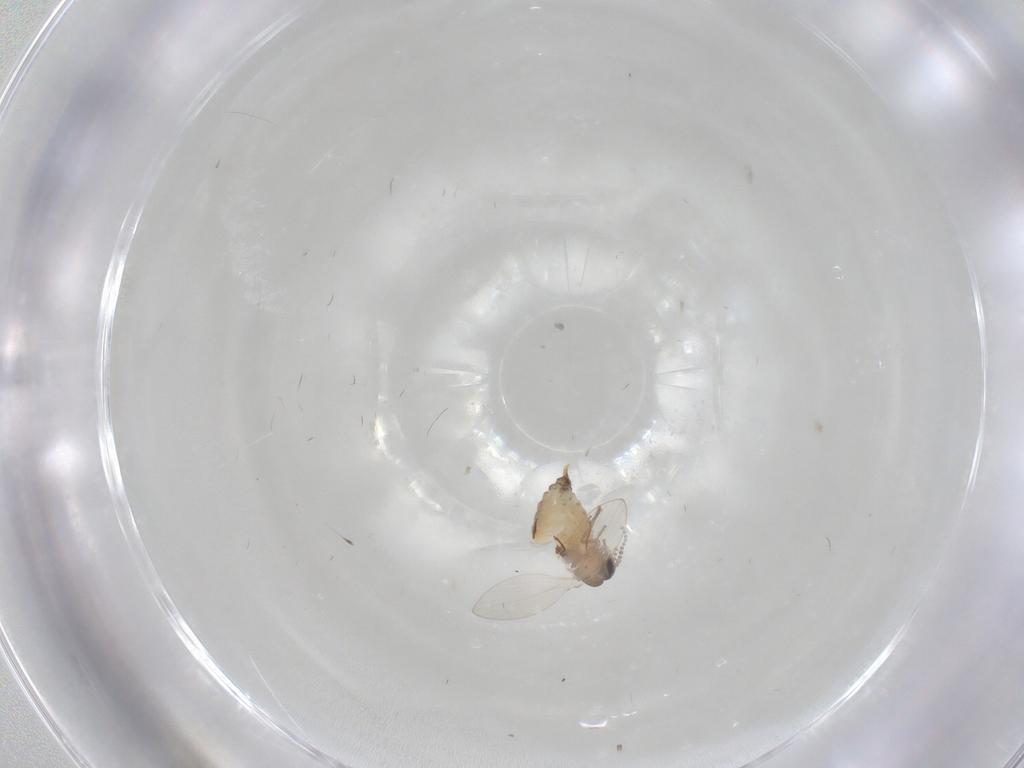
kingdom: Animalia
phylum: Arthropoda
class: Insecta
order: Diptera
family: Psychodidae
